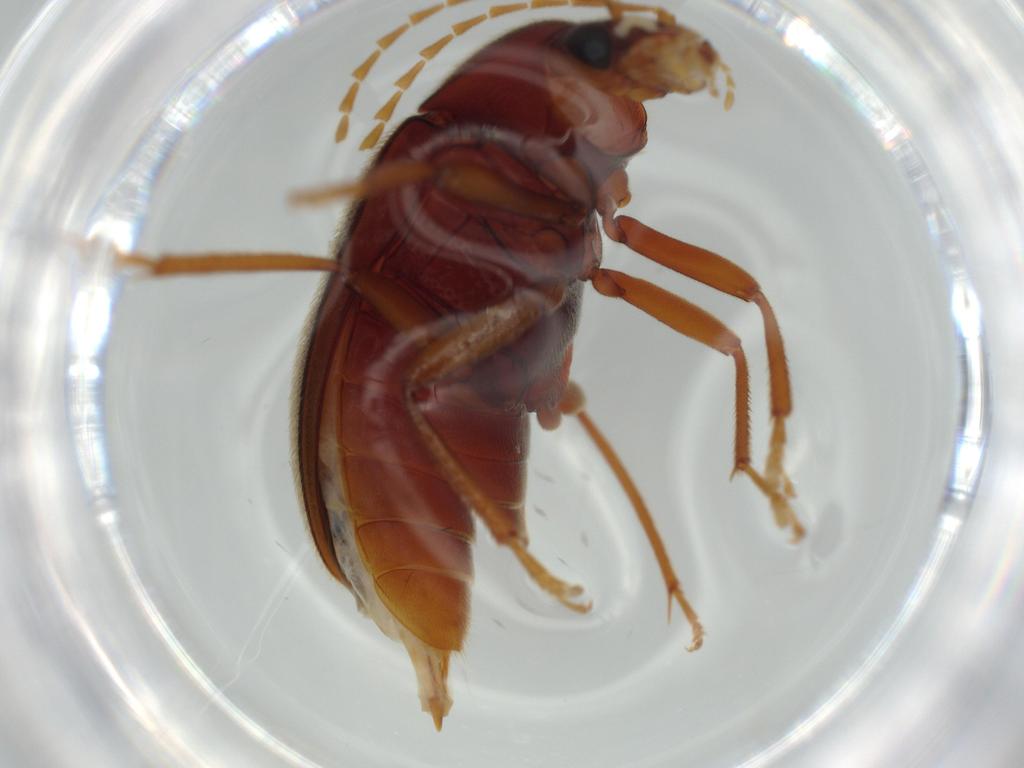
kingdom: Animalia
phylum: Arthropoda
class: Insecta
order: Coleoptera
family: Ptilodactylidae
